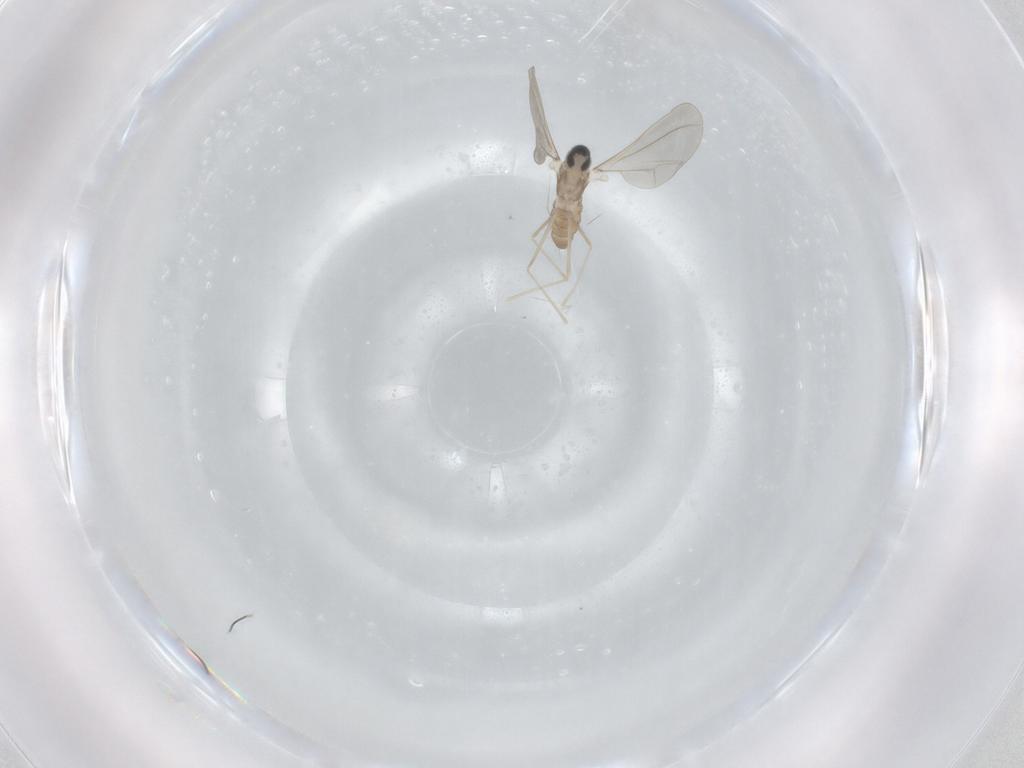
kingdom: Animalia
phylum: Arthropoda
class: Insecta
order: Diptera
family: Cecidomyiidae
